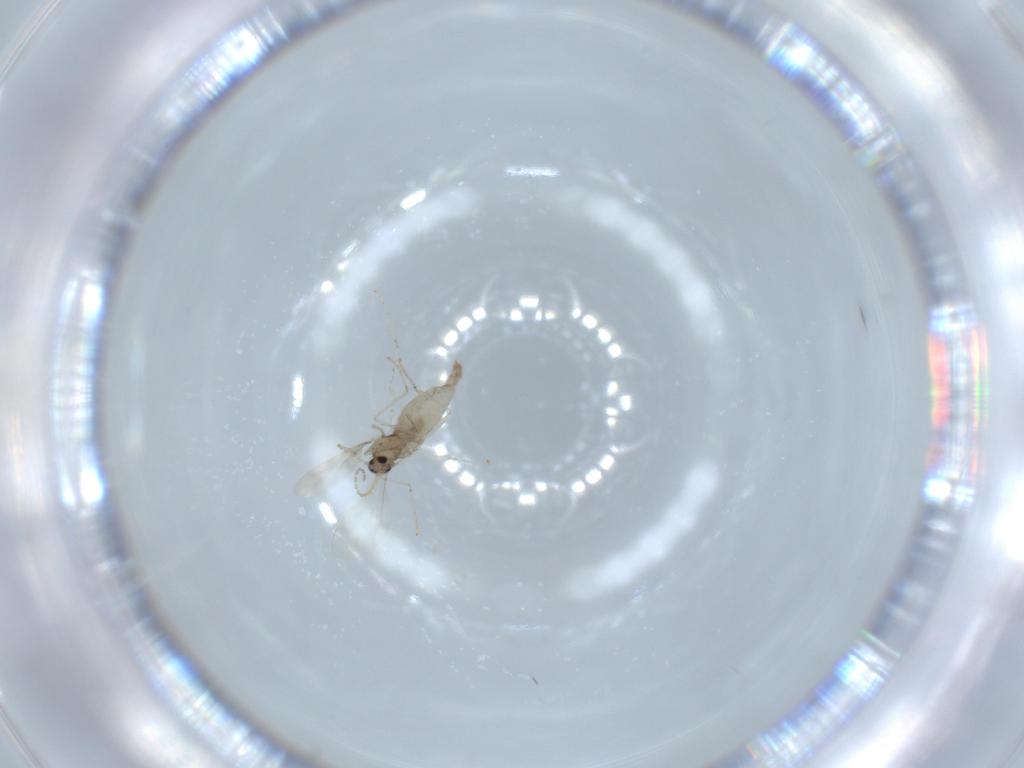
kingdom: Animalia
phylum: Arthropoda
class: Insecta
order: Diptera
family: Cecidomyiidae
